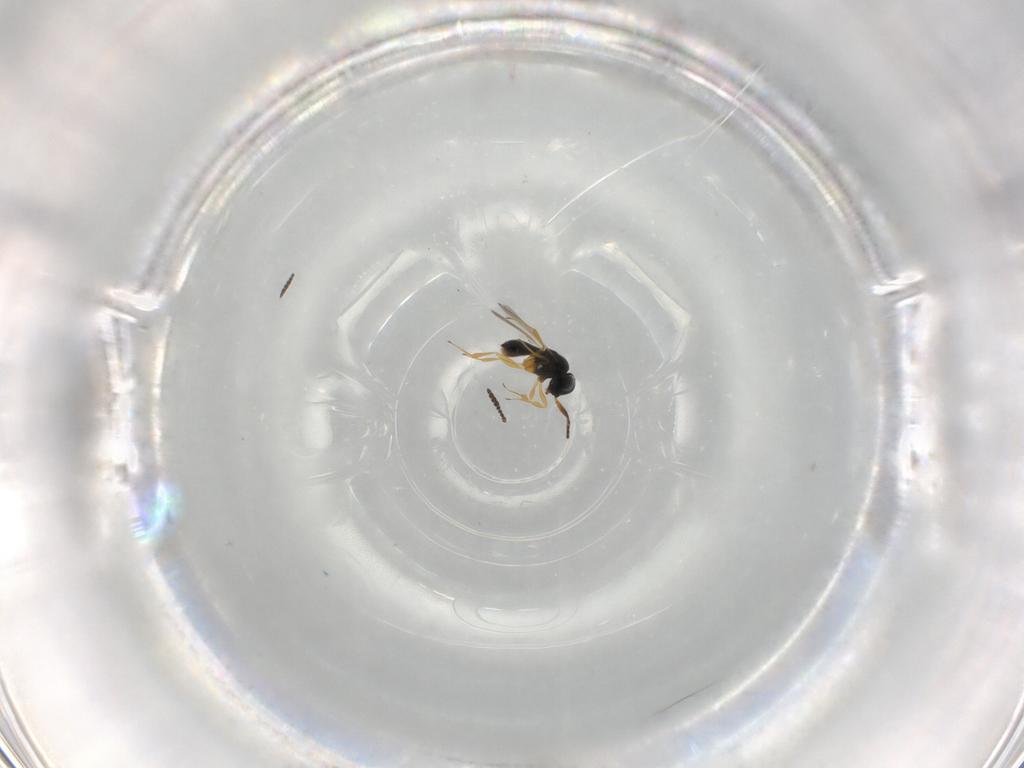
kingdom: Animalia
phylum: Arthropoda
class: Insecta
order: Hymenoptera
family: Scelionidae
